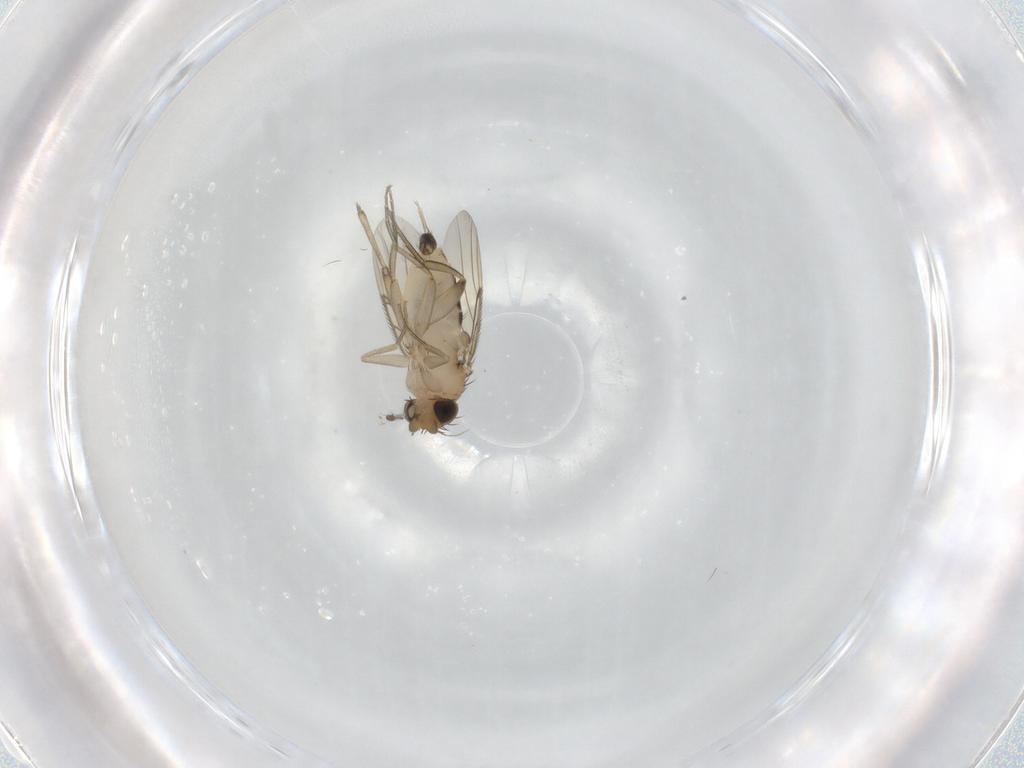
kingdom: Animalia
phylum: Arthropoda
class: Insecta
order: Diptera
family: Phoridae
